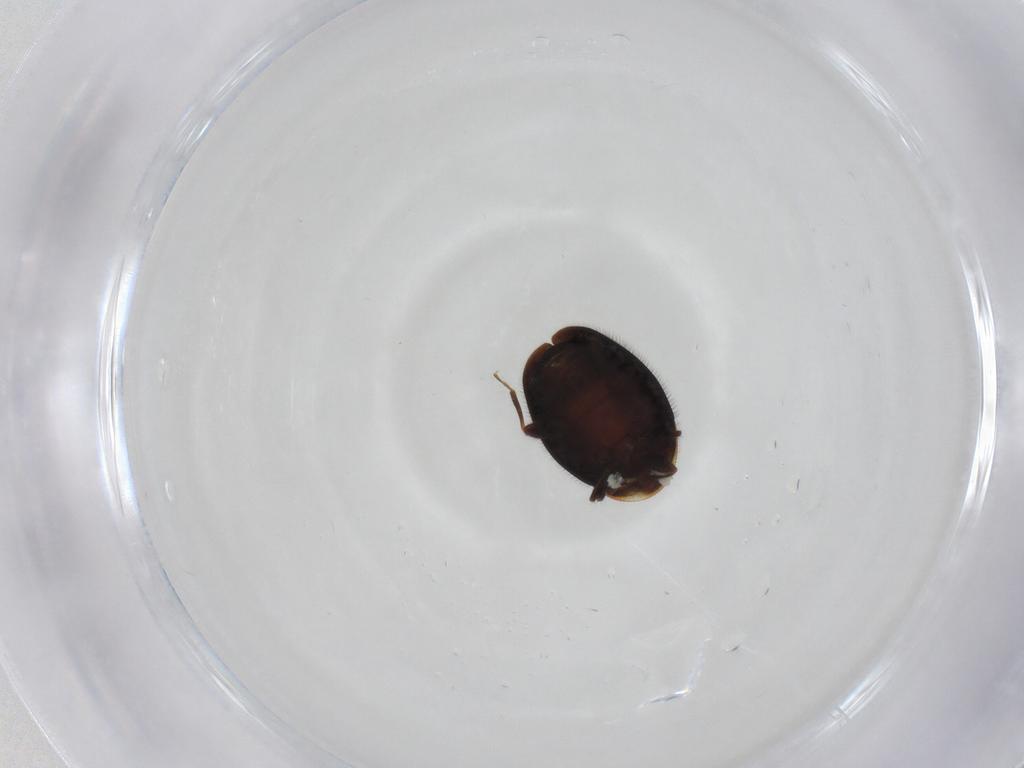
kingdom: Animalia
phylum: Arthropoda
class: Insecta
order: Coleoptera
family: Aderidae
